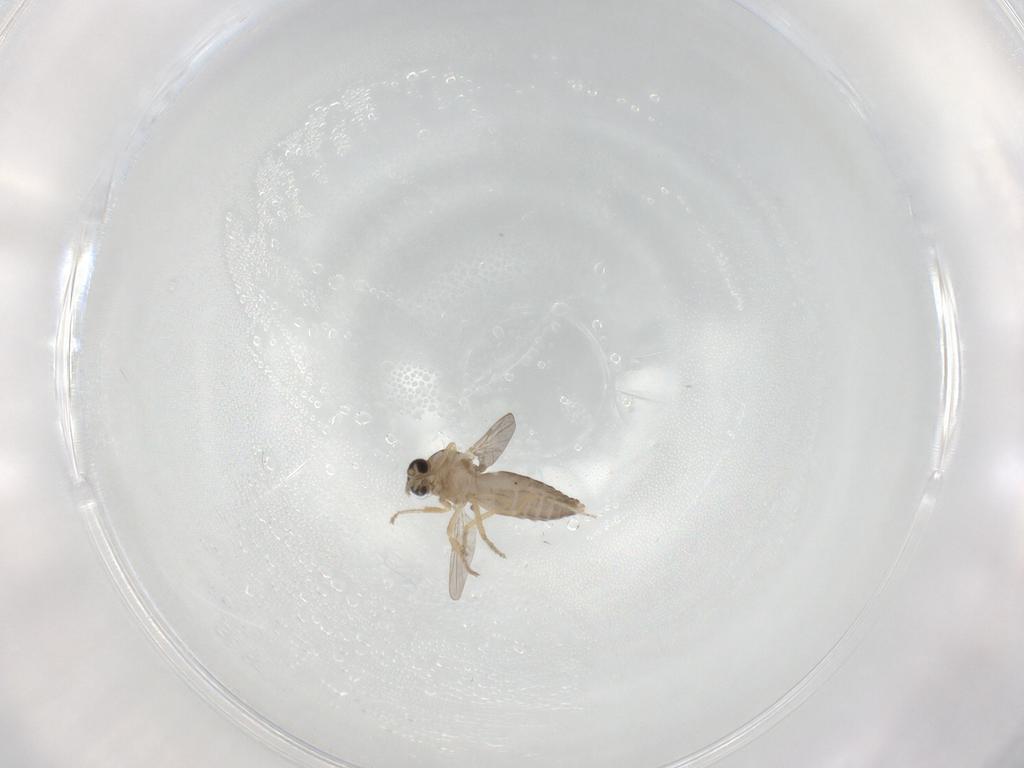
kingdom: Animalia
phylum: Arthropoda
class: Insecta
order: Diptera
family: Ceratopogonidae
